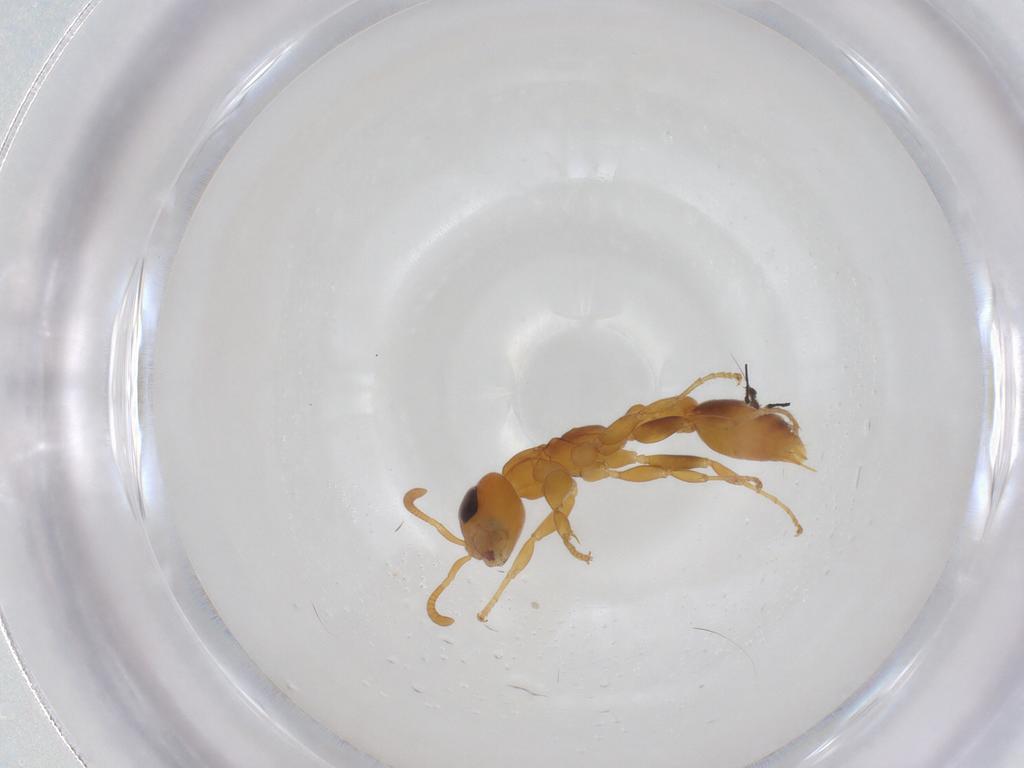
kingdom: Animalia
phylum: Arthropoda
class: Insecta
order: Hymenoptera
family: Formicidae
